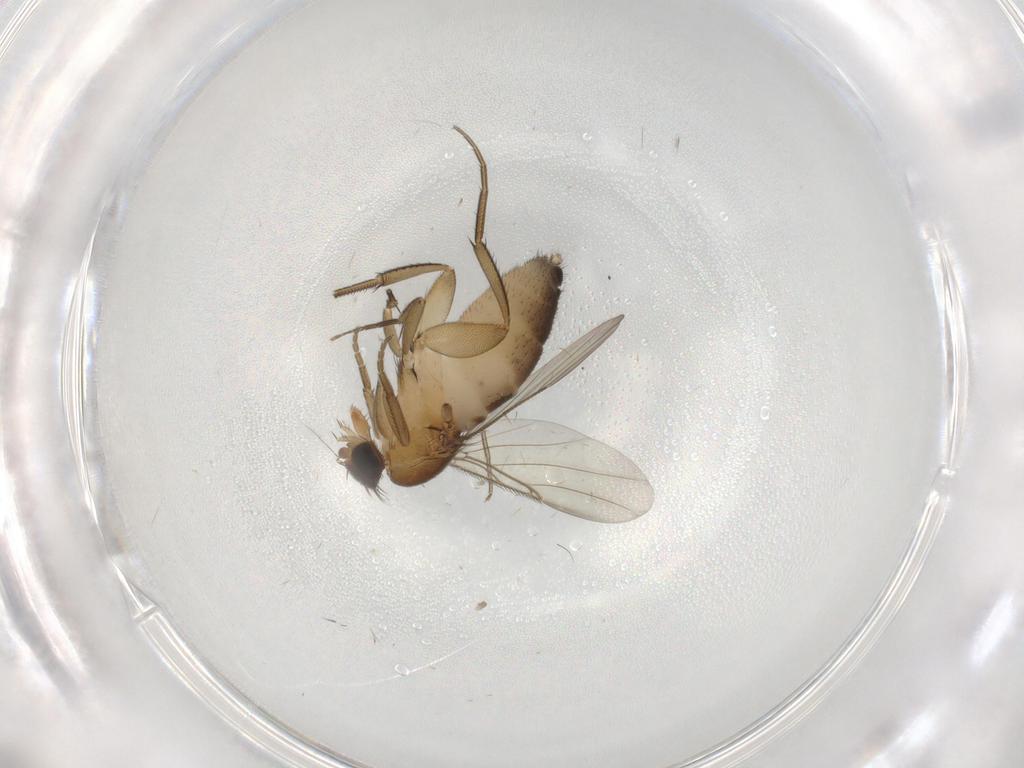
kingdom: Animalia
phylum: Arthropoda
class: Insecta
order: Diptera
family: Phoridae
